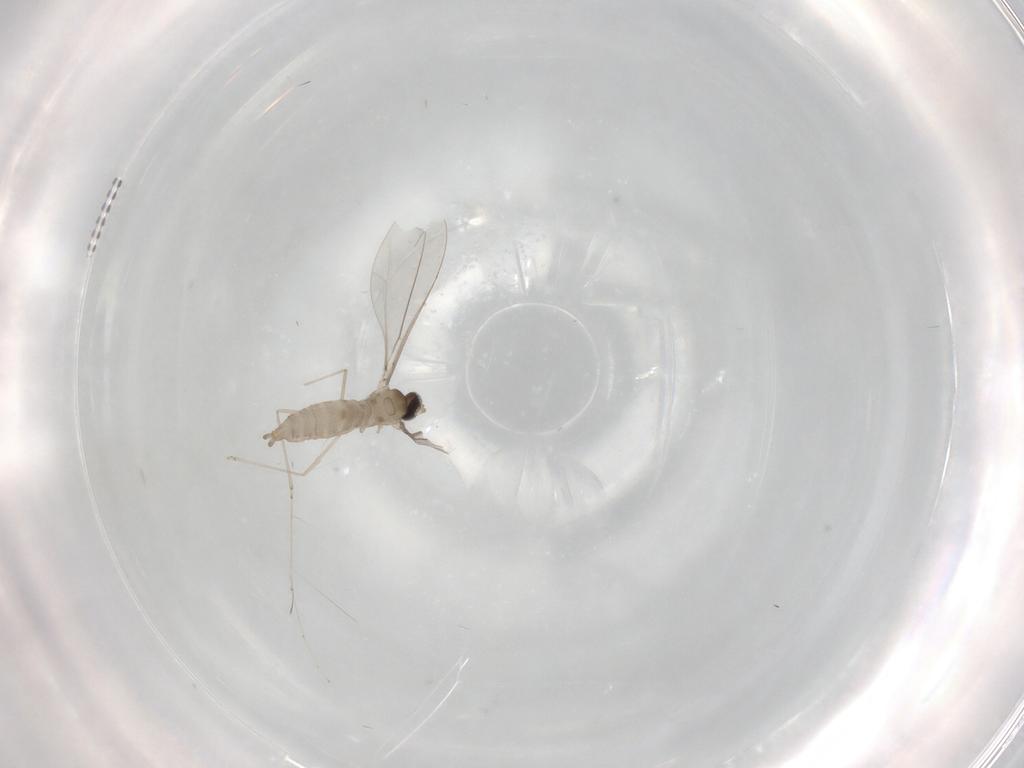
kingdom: Animalia
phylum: Arthropoda
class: Insecta
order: Diptera
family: Cecidomyiidae
